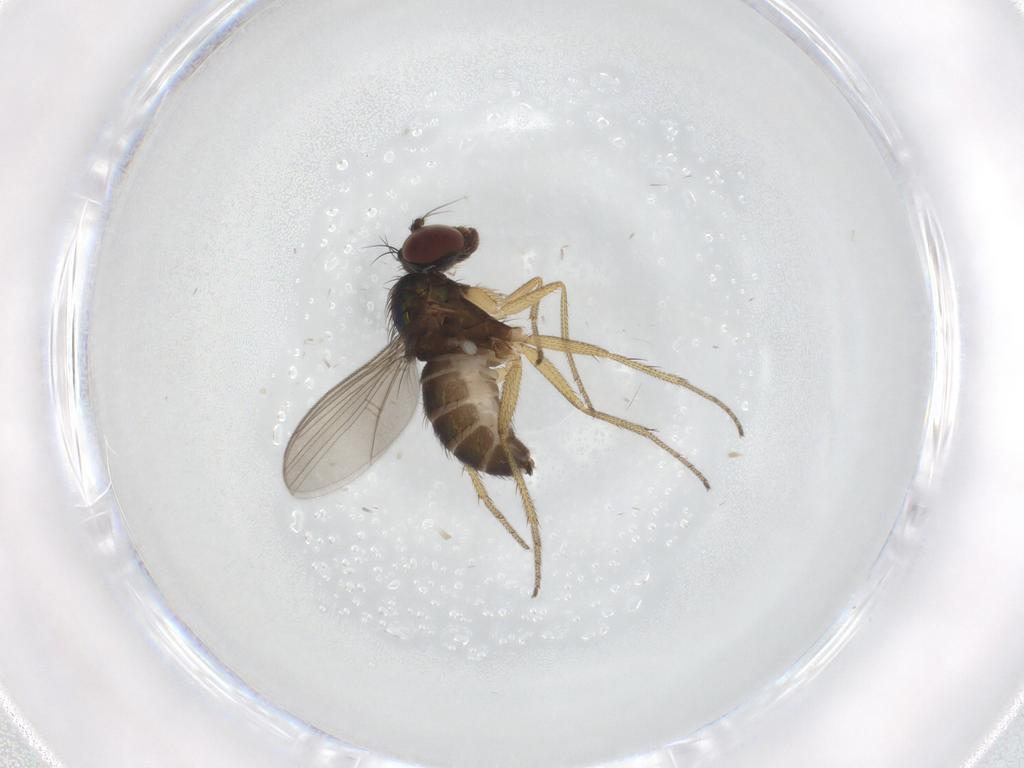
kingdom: Animalia
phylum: Arthropoda
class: Insecta
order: Diptera
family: Dolichopodidae
